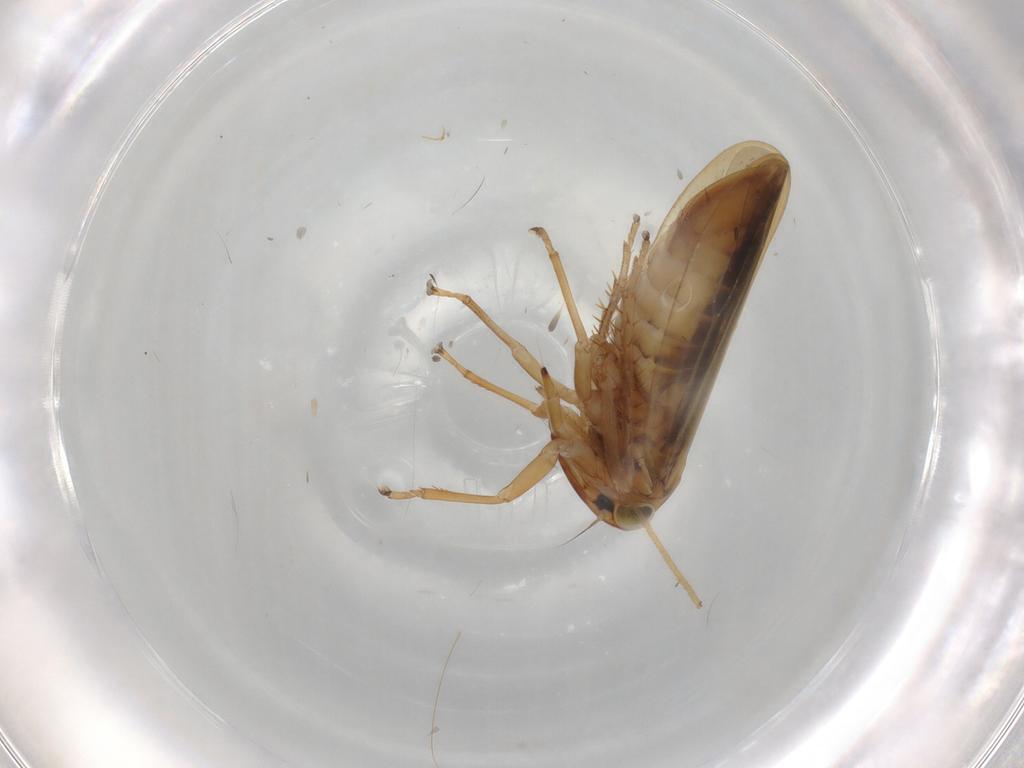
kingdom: Animalia
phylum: Arthropoda
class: Insecta
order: Hemiptera
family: Cicadellidae
